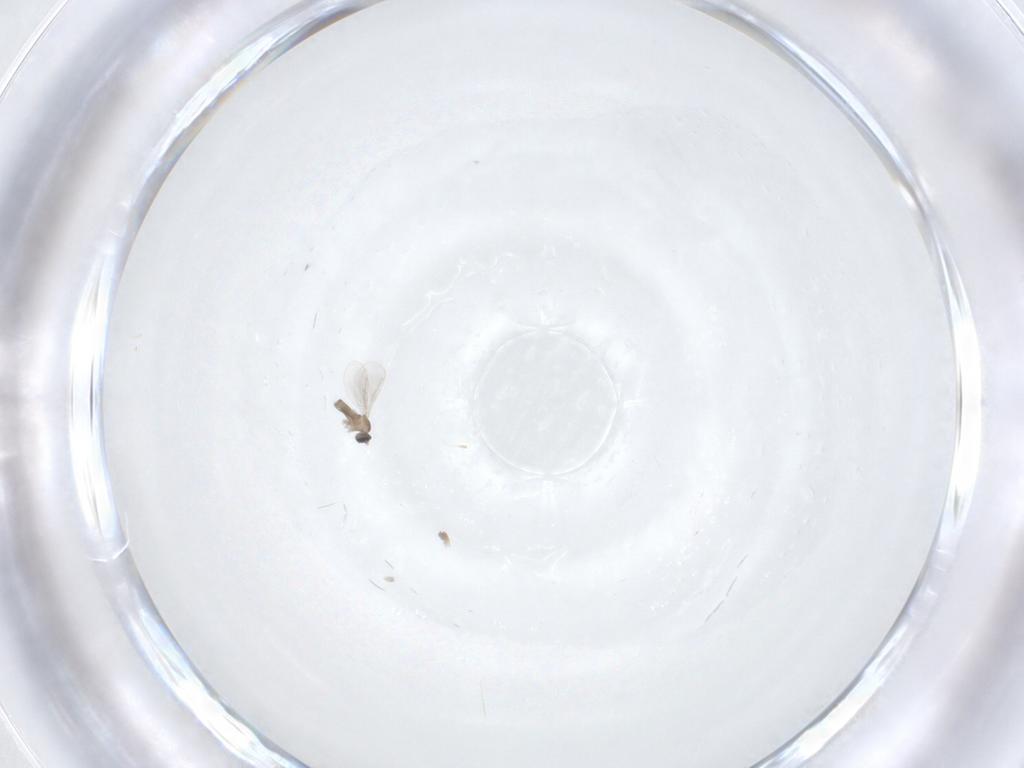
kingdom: Animalia
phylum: Arthropoda
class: Insecta
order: Diptera
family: Cecidomyiidae
